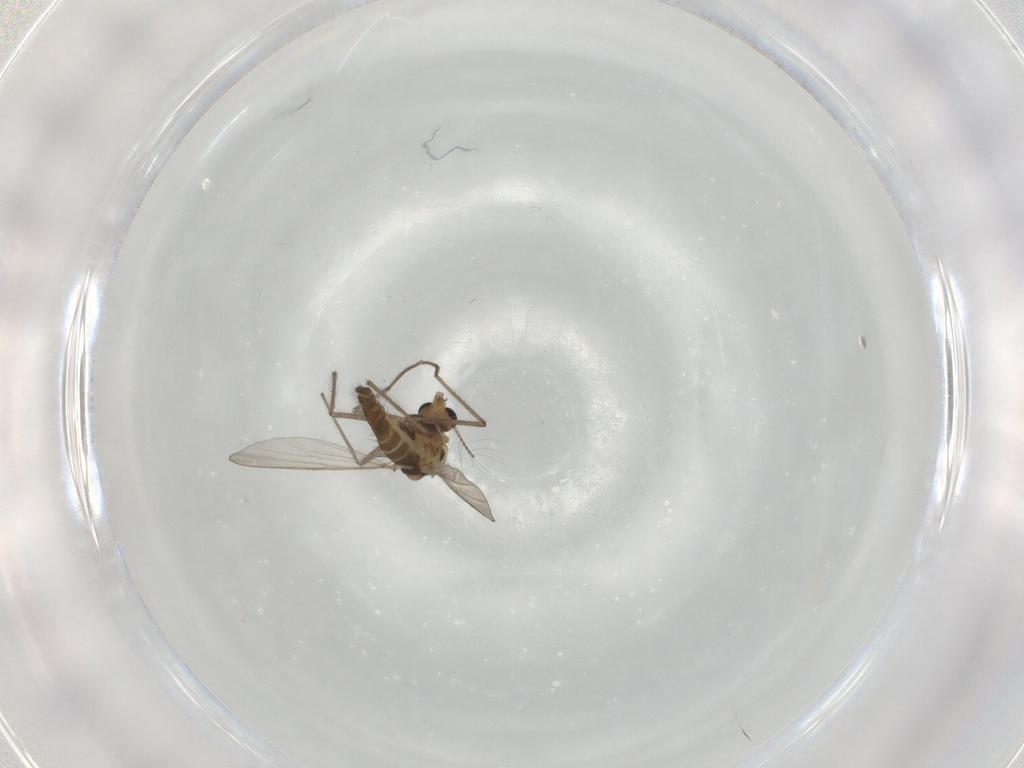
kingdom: Animalia
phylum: Arthropoda
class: Insecta
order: Diptera
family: Chironomidae
